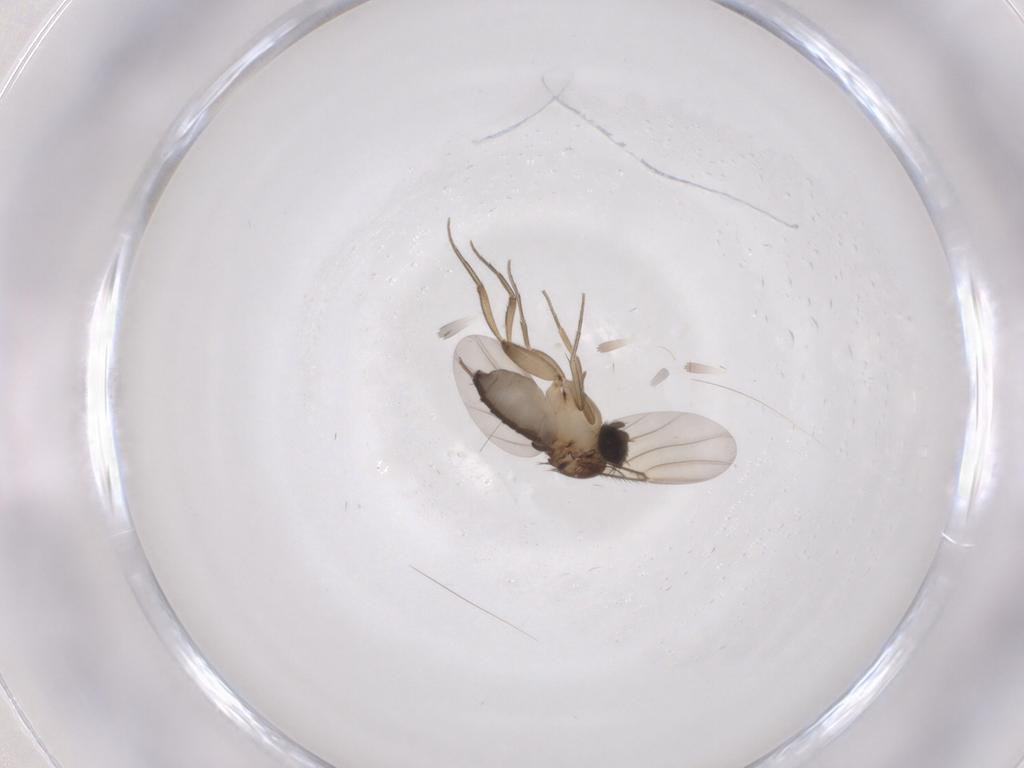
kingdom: Animalia
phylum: Arthropoda
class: Insecta
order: Diptera
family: Phoridae
